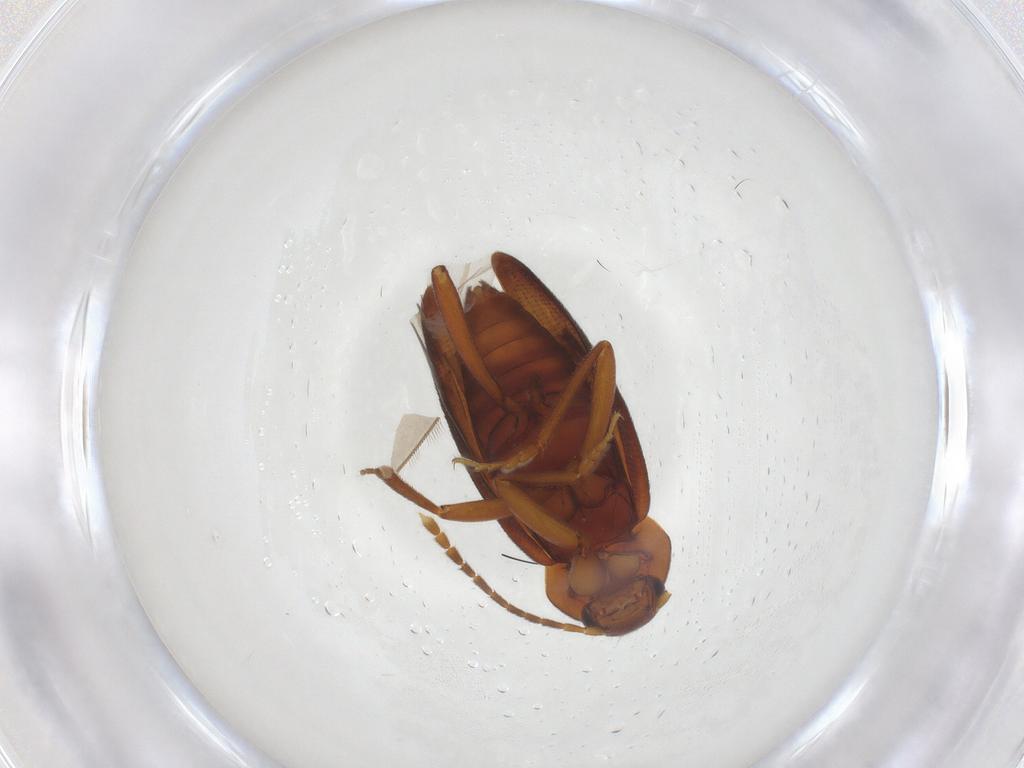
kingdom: Animalia
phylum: Arthropoda
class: Insecta
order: Coleoptera
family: Leiodidae
